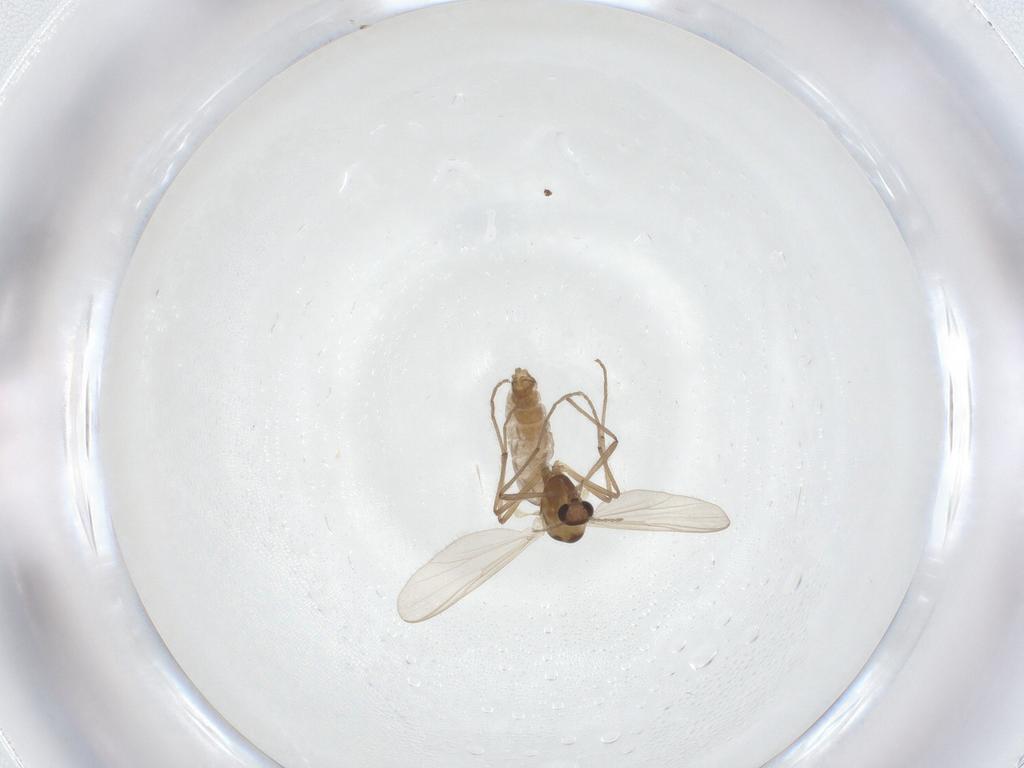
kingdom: Animalia
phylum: Arthropoda
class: Insecta
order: Diptera
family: Chironomidae
